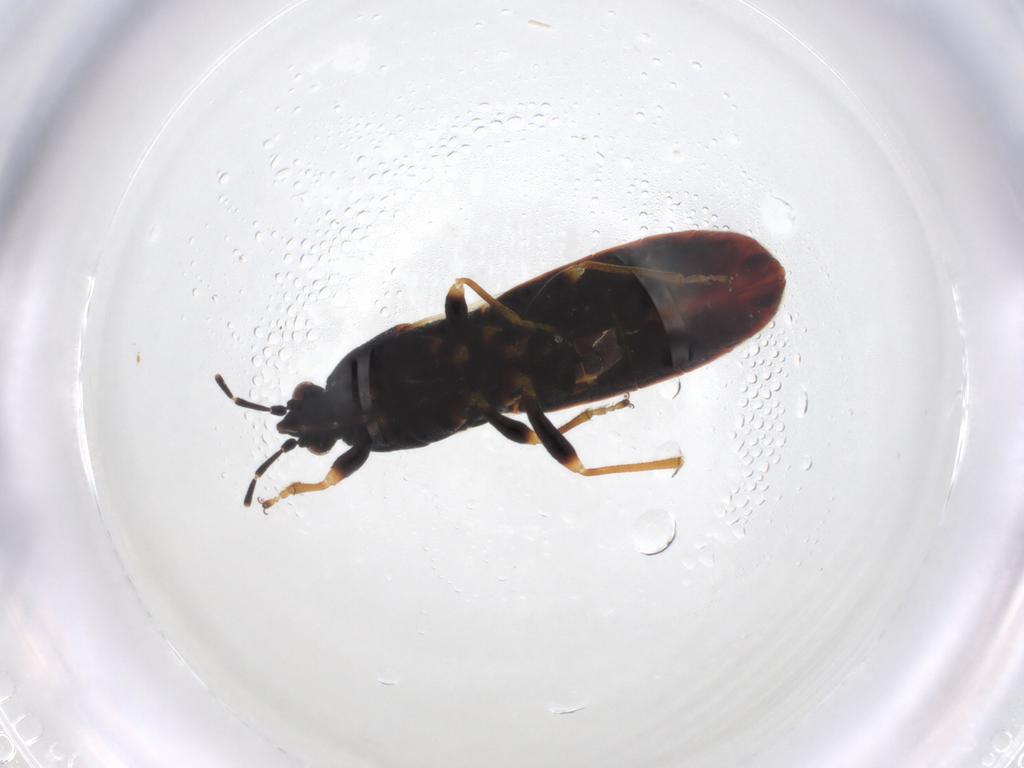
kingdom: Animalia
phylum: Arthropoda
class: Insecta
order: Hemiptera
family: Blissidae
